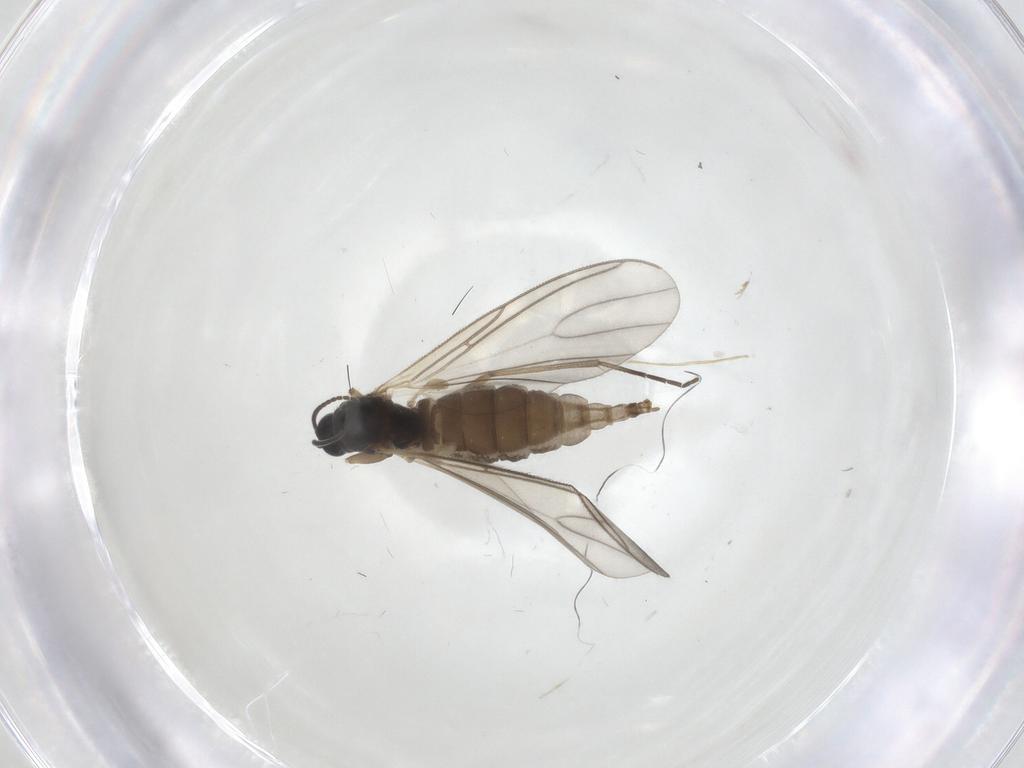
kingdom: Animalia
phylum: Arthropoda
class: Insecta
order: Diptera
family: Sciaridae
